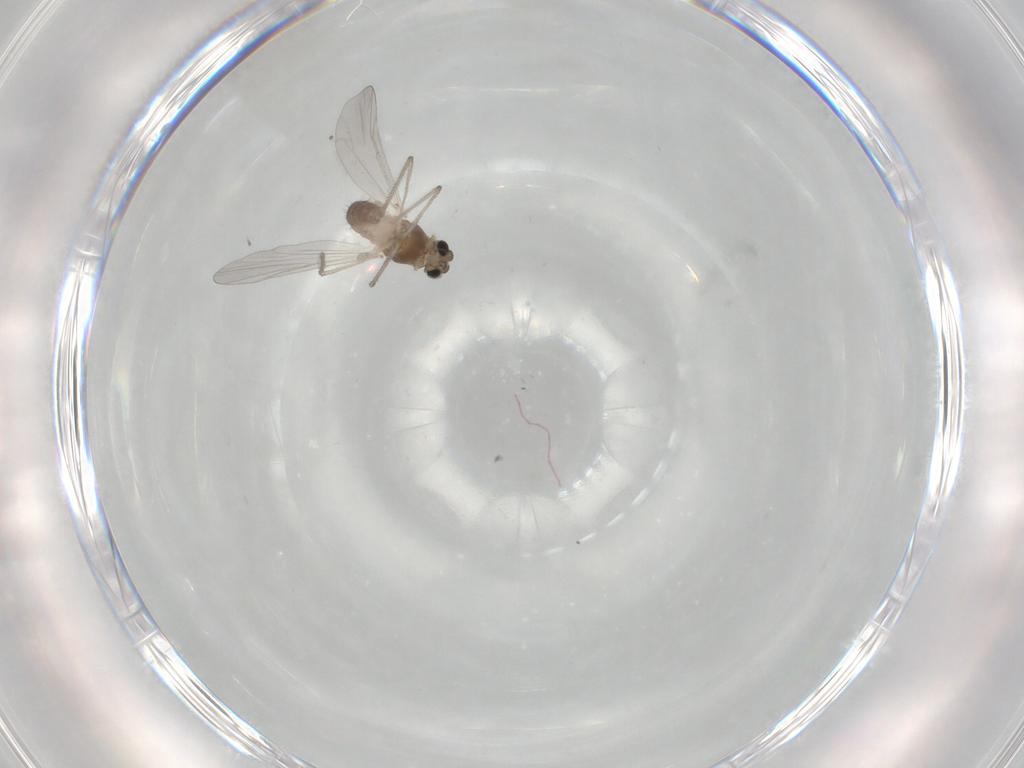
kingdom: Animalia
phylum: Arthropoda
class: Insecta
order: Diptera
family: Chironomidae
